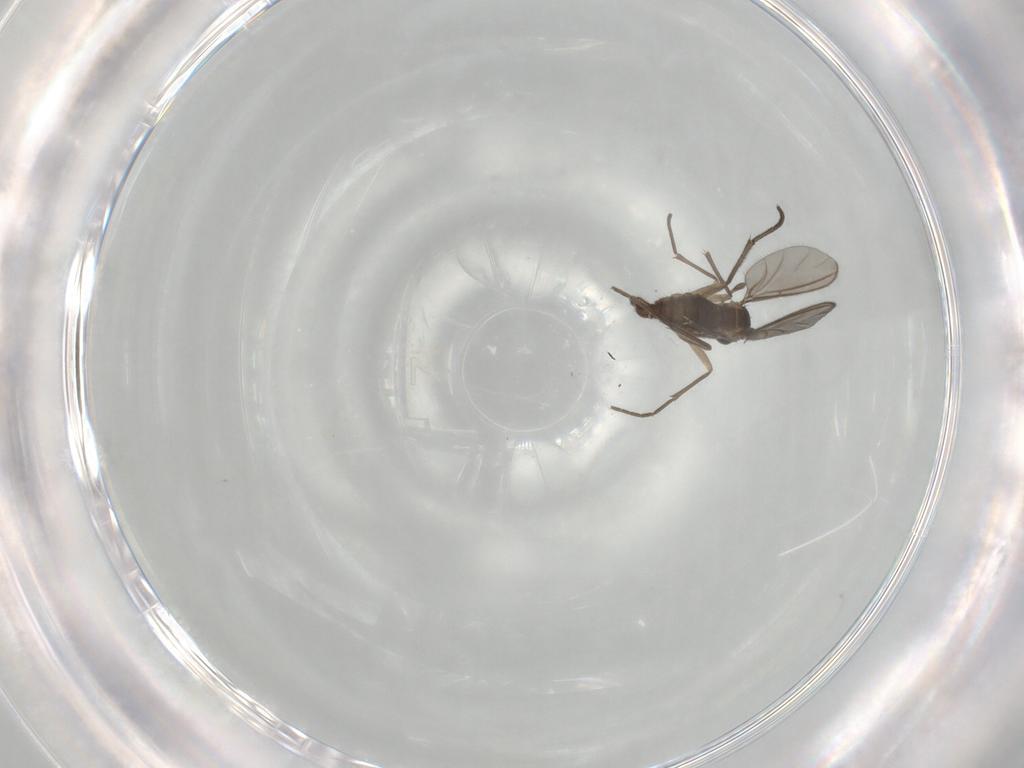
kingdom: Animalia
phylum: Arthropoda
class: Insecta
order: Diptera
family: Sciaridae
